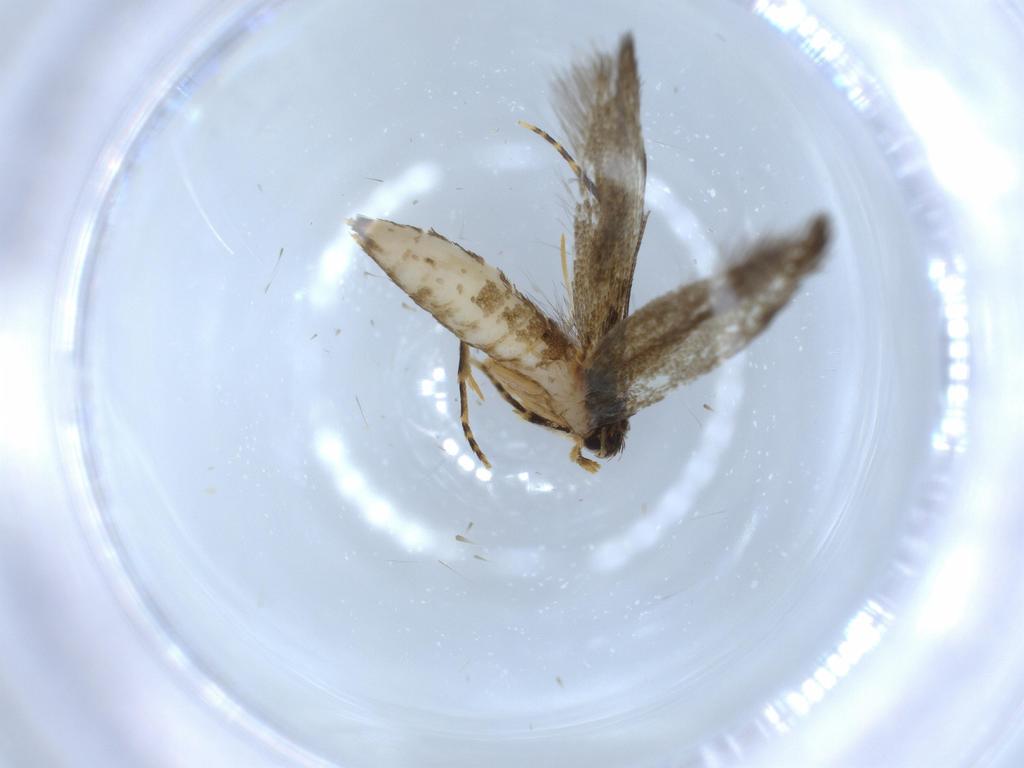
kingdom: Animalia
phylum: Arthropoda
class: Insecta
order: Lepidoptera
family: Tineidae
